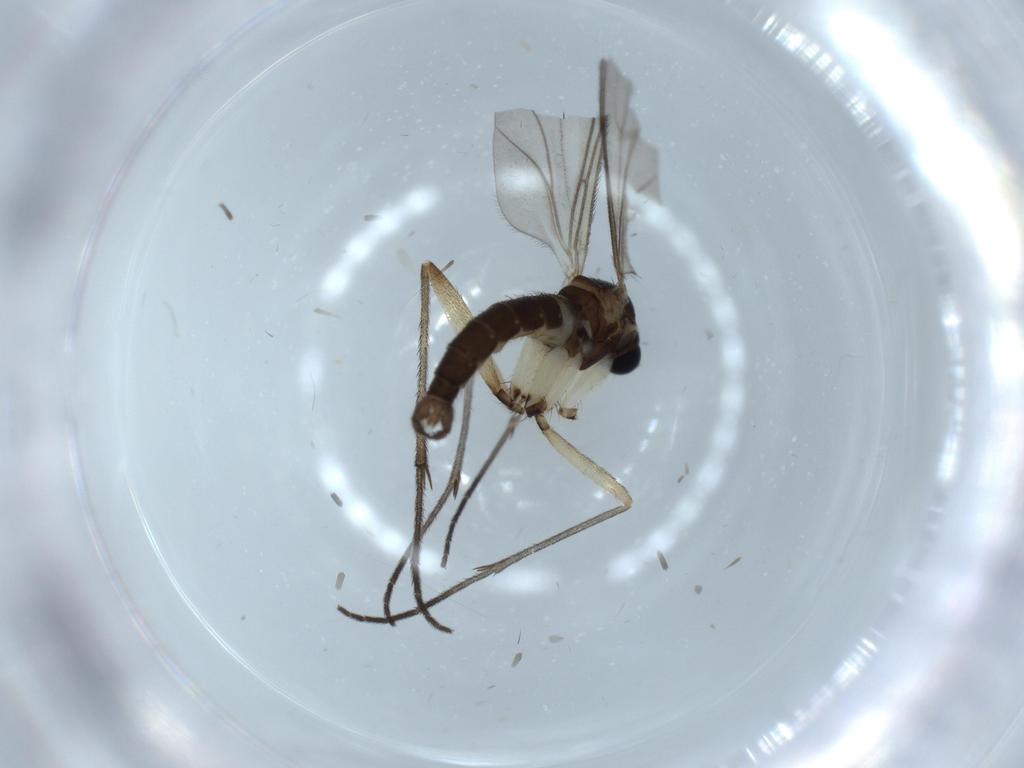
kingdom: Animalia
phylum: Arthropoda
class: Insecta
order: Diptera
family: Sciaridae
